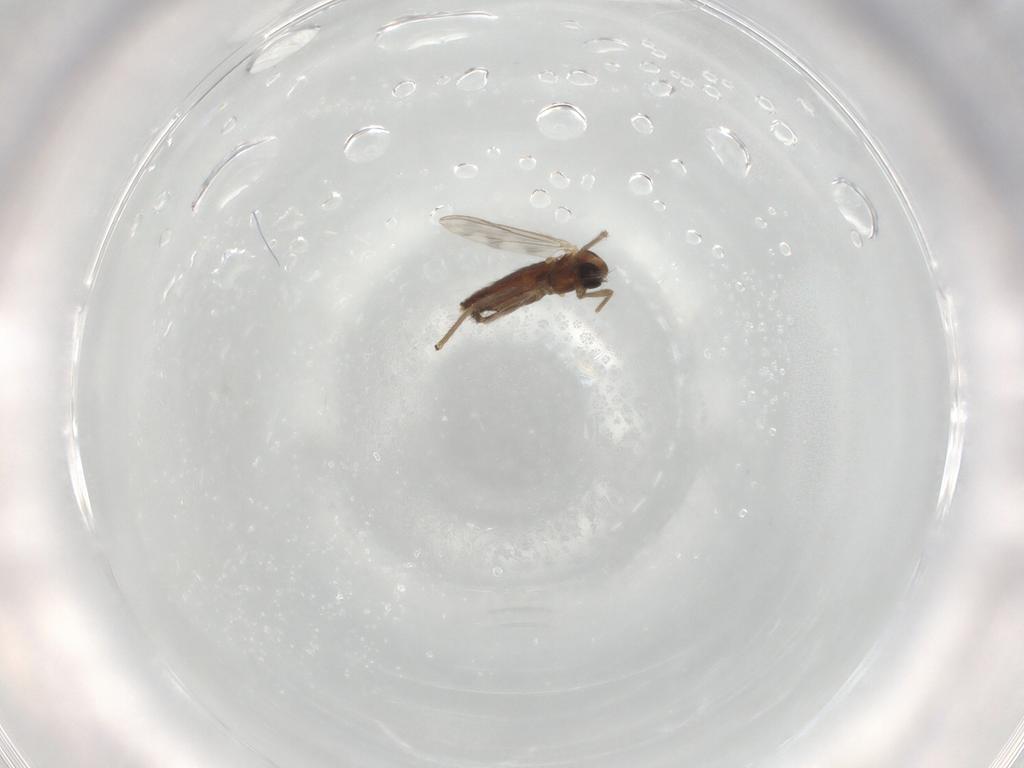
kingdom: Animalia
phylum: Arthropoda
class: Insecta
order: Diptera
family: Chironomidae
